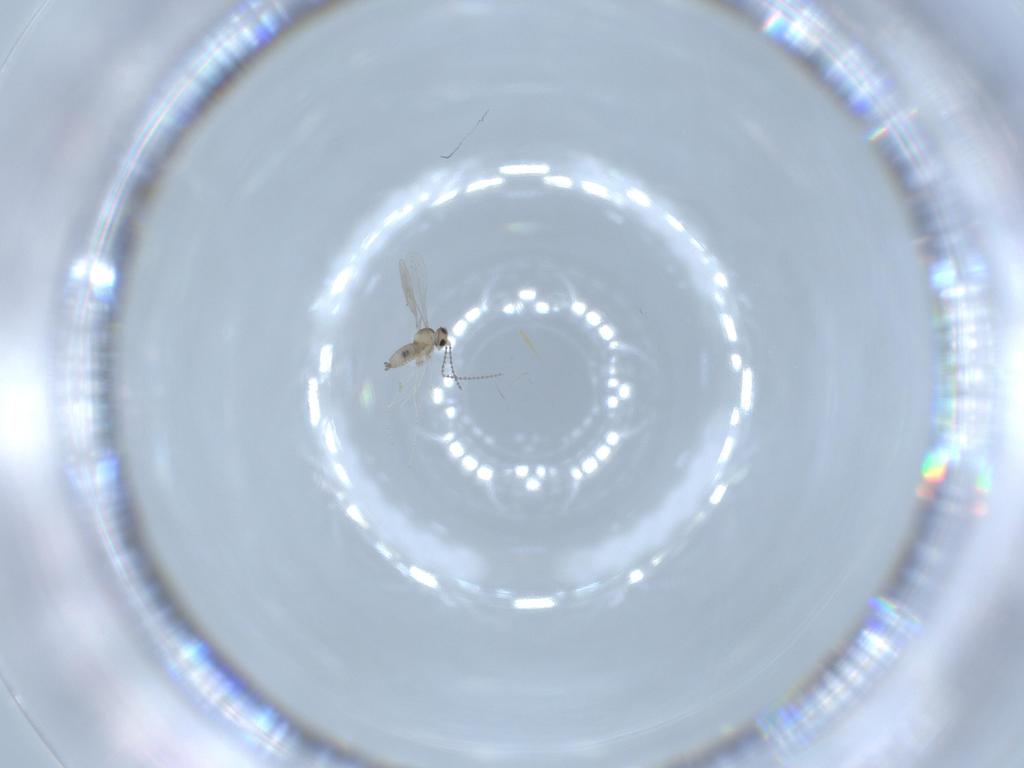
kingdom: Animalia
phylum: Arthropoda
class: Insecta
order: Diptera
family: Cecidomyiidae
